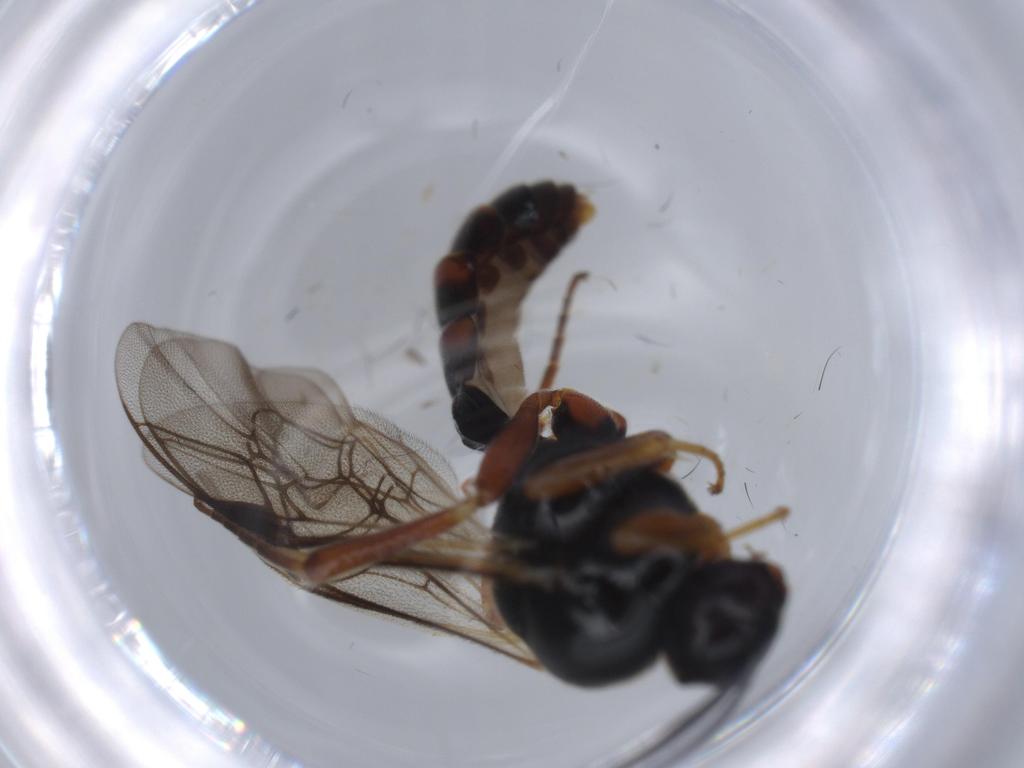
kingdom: Animalia
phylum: Arthropoda
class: Insecta
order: Hymenoptera
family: Ichneumonidae
